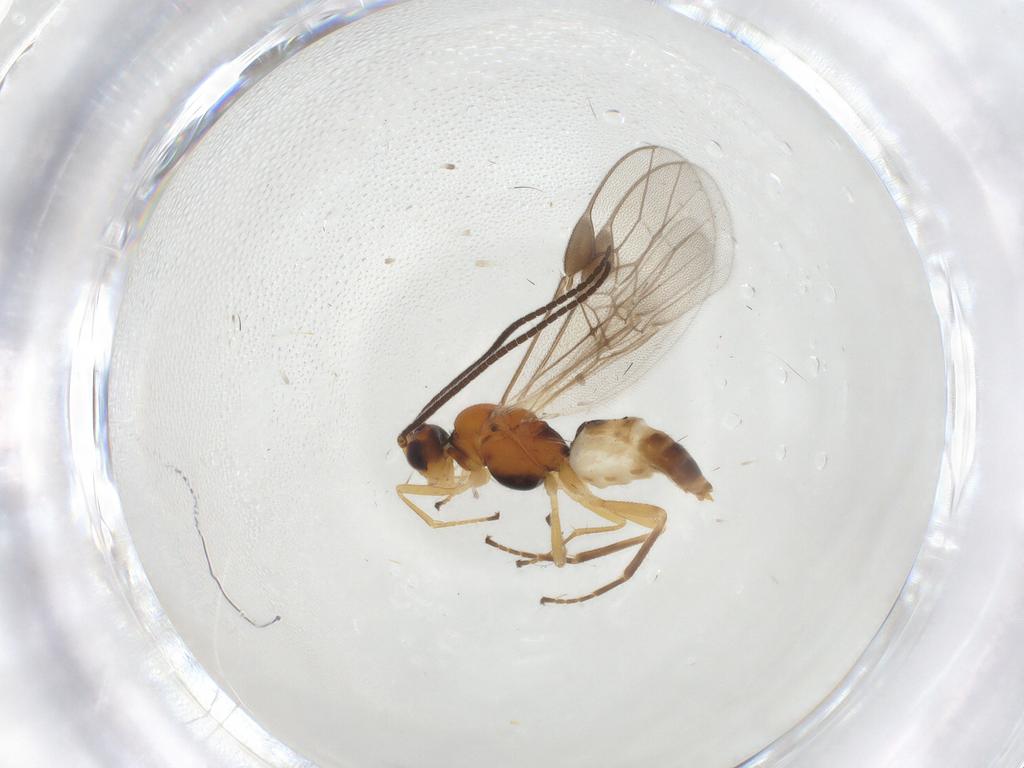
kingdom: Animalia
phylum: Arthropoda
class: Insecta
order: Hymenoptera
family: Braconidae
